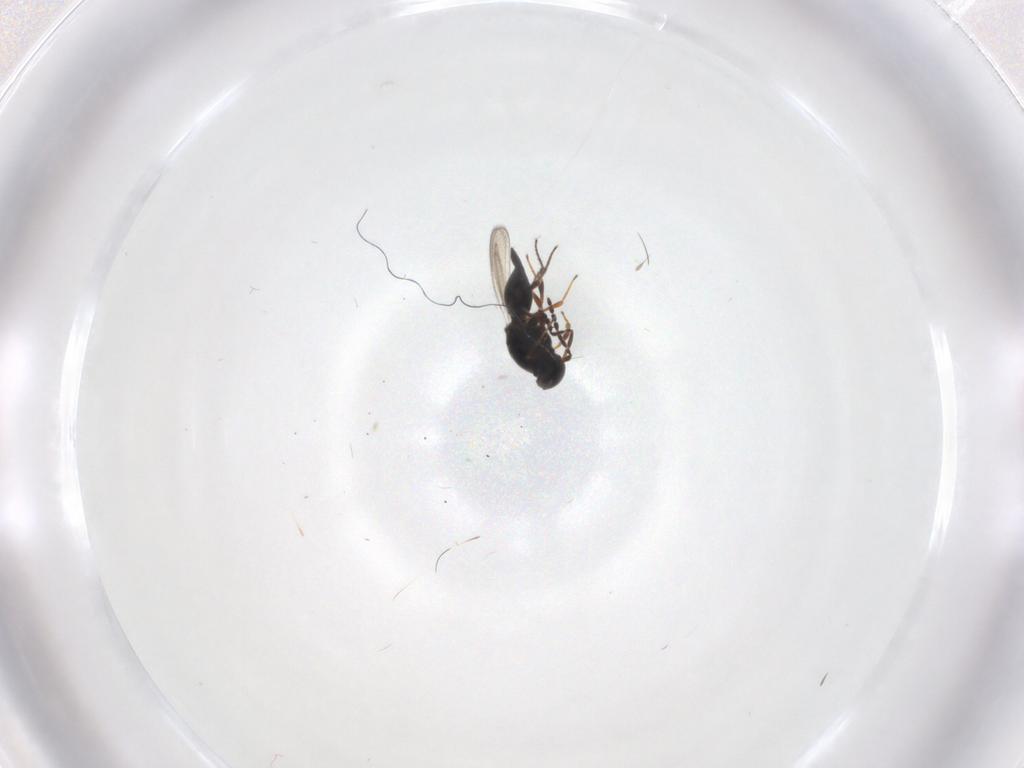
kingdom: Animalia
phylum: Arthropoda
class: Insecta
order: Hymenoptera
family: Platygastridae
